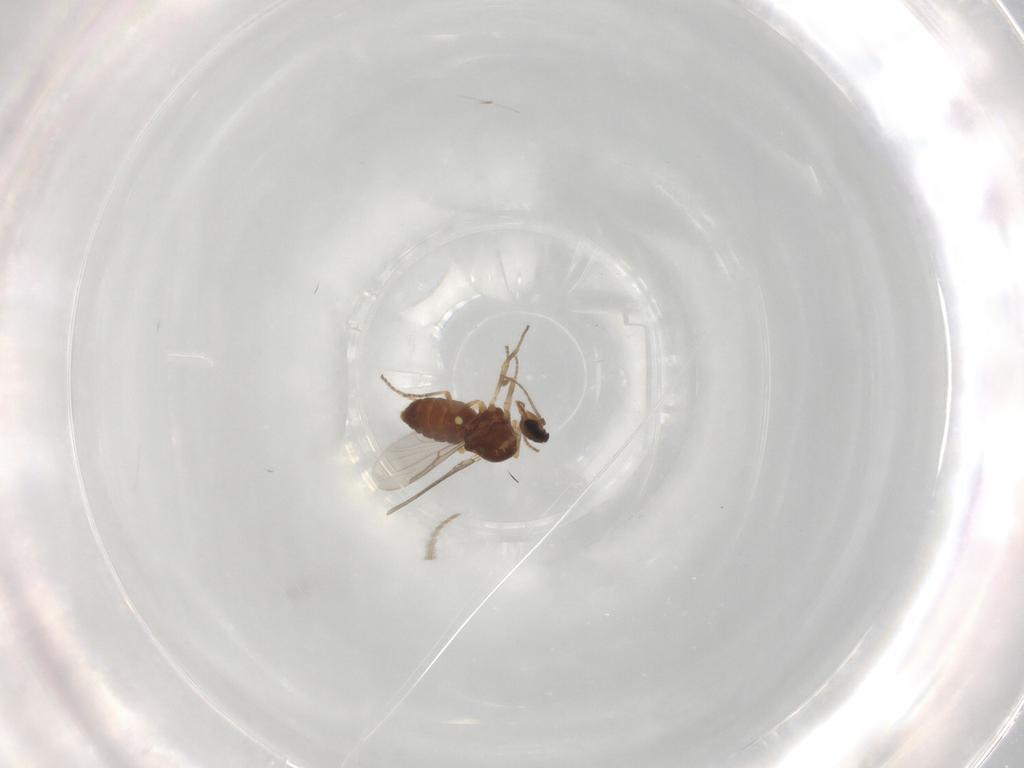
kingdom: Animalia
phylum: Arthropoda
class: Insecta
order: Diptera
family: Ceratopogonidae
